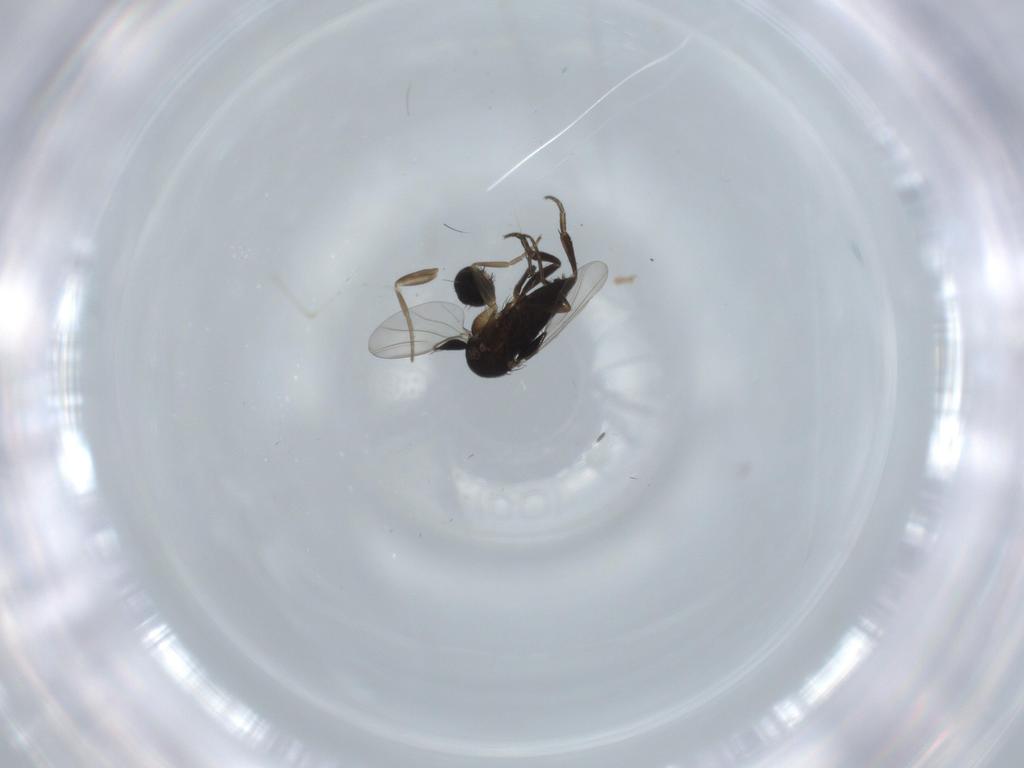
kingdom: Animalia
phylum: Arthropoda
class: Insecta
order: Diptera
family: Phoridae
